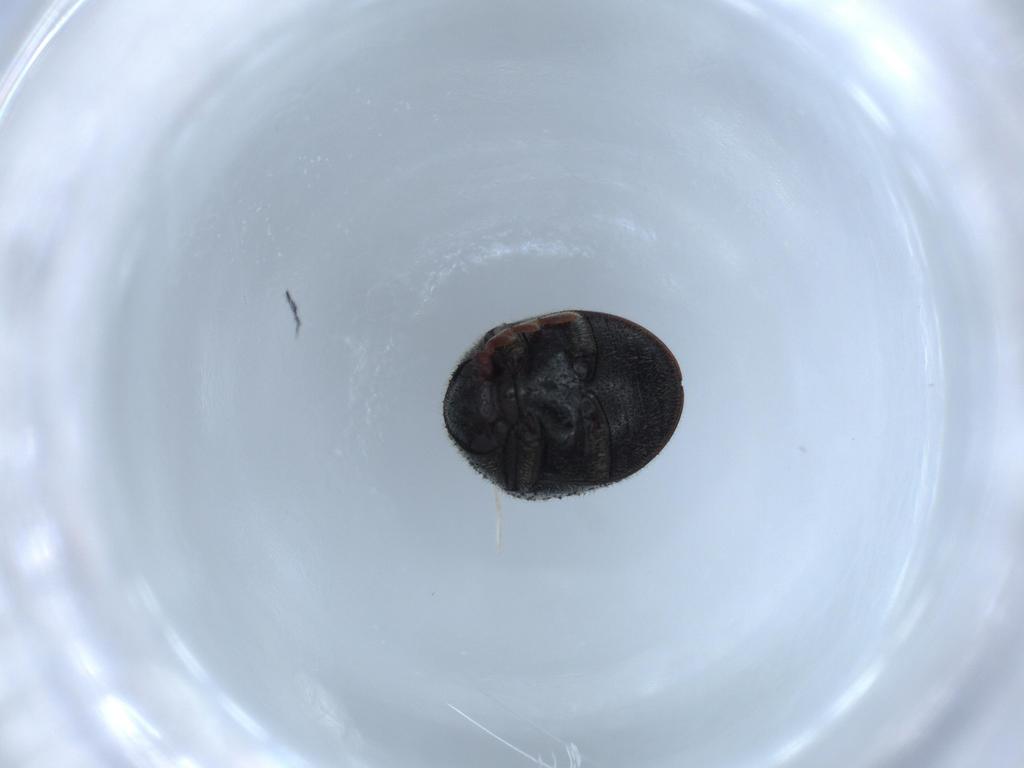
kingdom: Animalia
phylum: Arthropoda
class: Insecta
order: Coleoptera
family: Ptinidae
